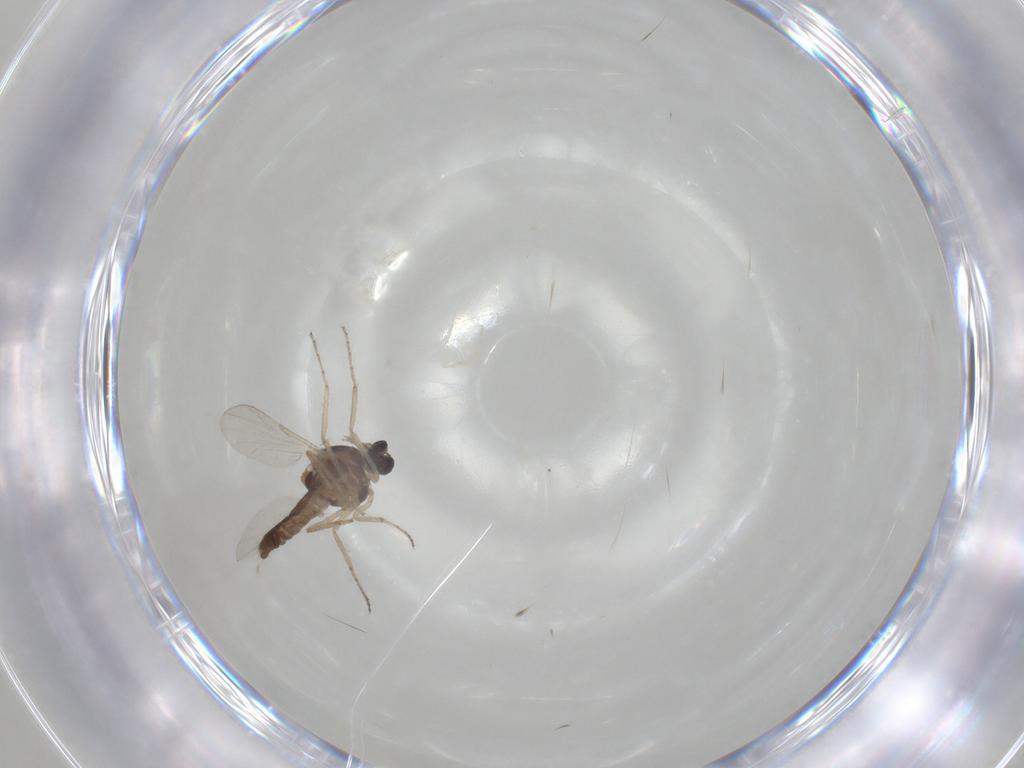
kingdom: Animalia
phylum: Arthropoda
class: Insecta
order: Diptera
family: Ceratopogonidae
